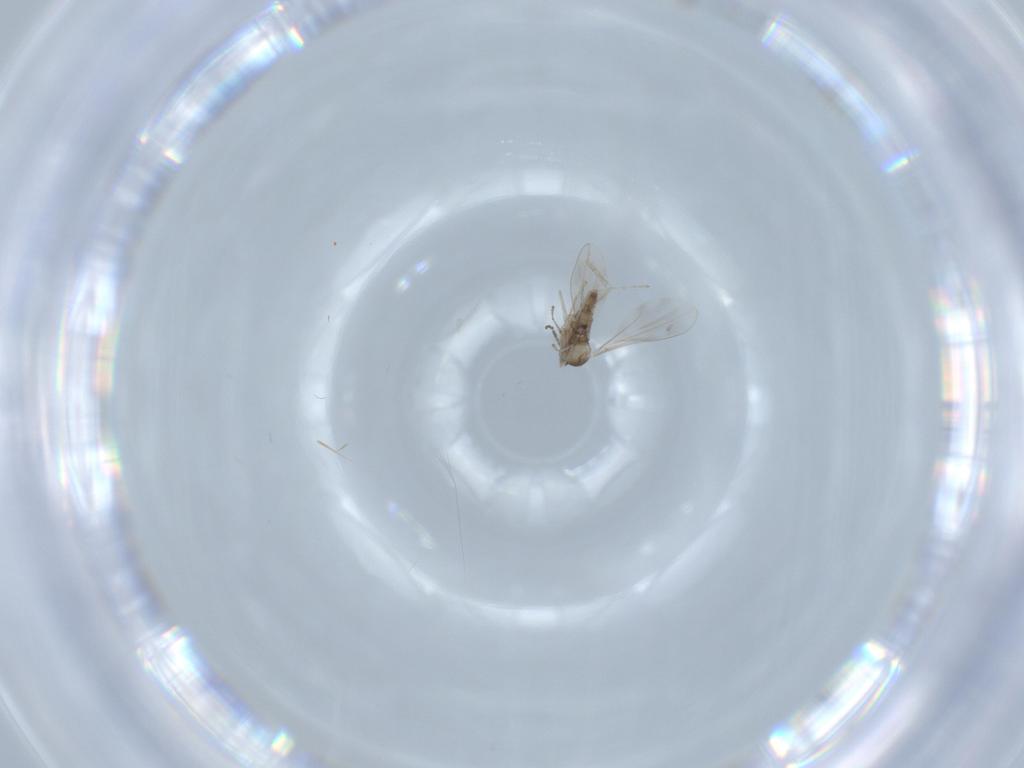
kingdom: Animalia
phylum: Arthropoda
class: Insecta
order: Diptera
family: Cecidomyiidae
